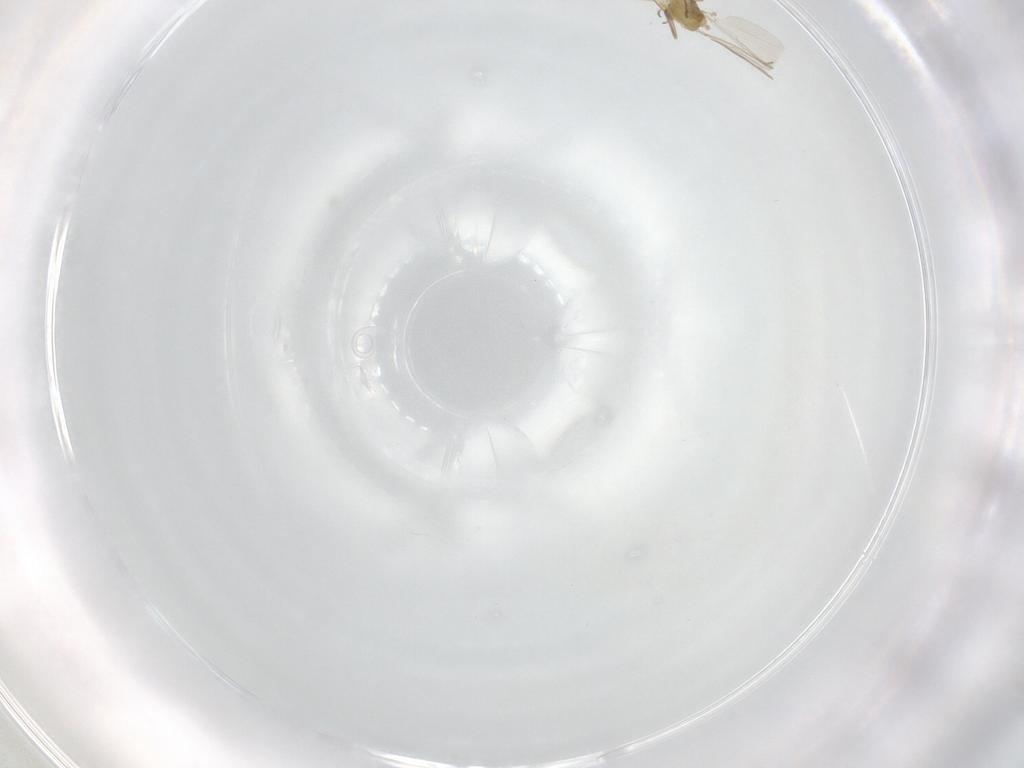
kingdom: Animalia
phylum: Arthropoda
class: Insecta
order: Diptera
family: Chironomidae
